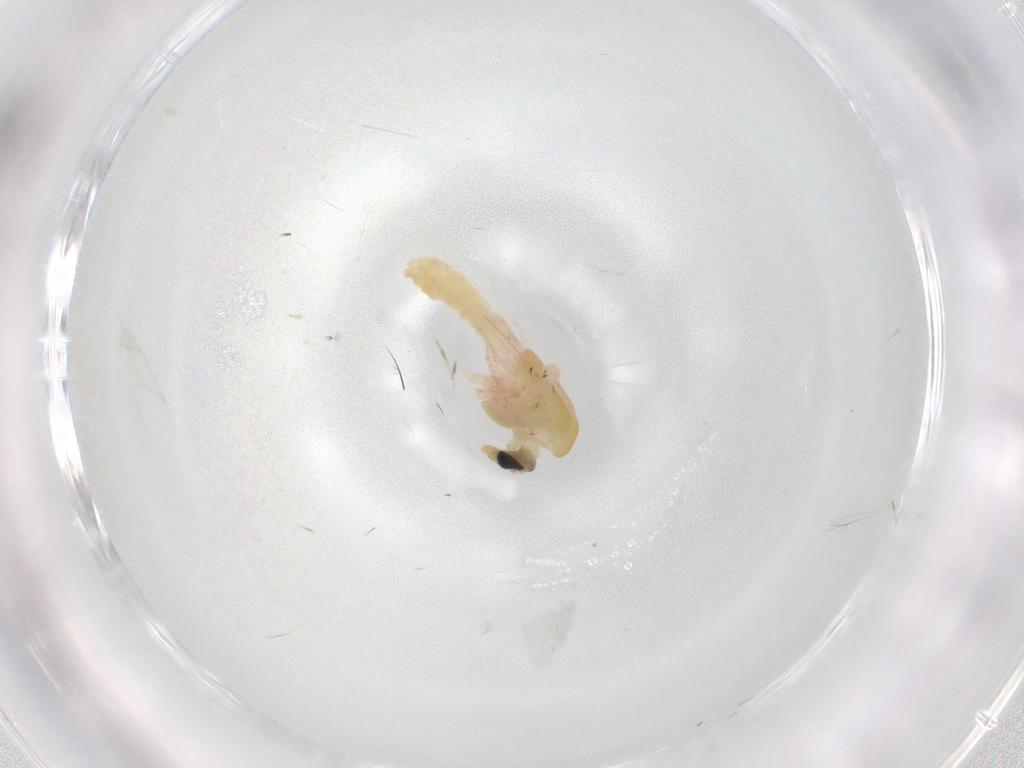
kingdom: Animalia
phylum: Arthropoda
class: Insecta
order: Diptera
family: Chironomidae
